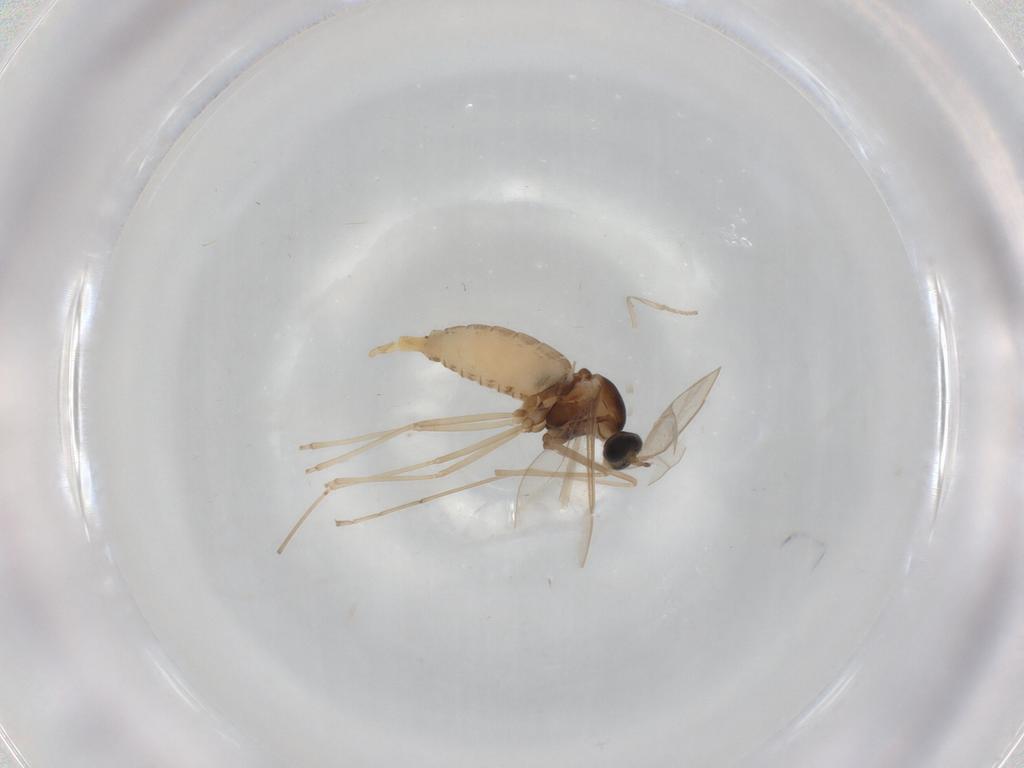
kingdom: Animalia
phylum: Arthropoda
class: Insecta
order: Diptera
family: Cecidomyiidae
